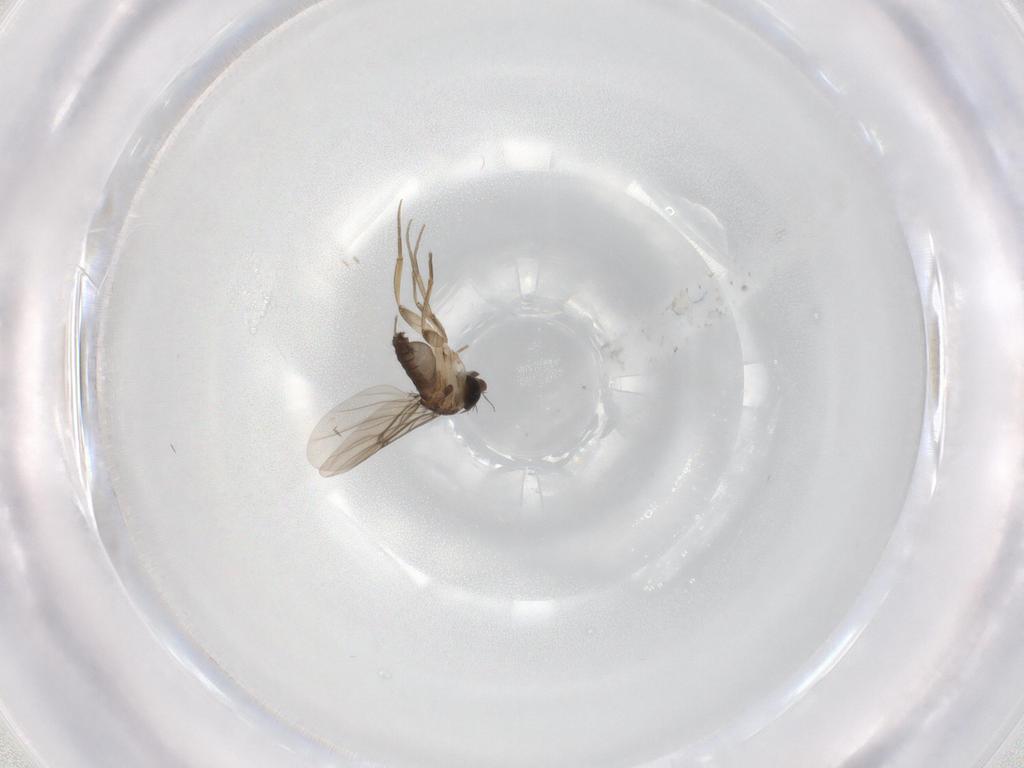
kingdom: Animalia
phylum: Arthropoda
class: Insecta
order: Diptera
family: Phoridae
